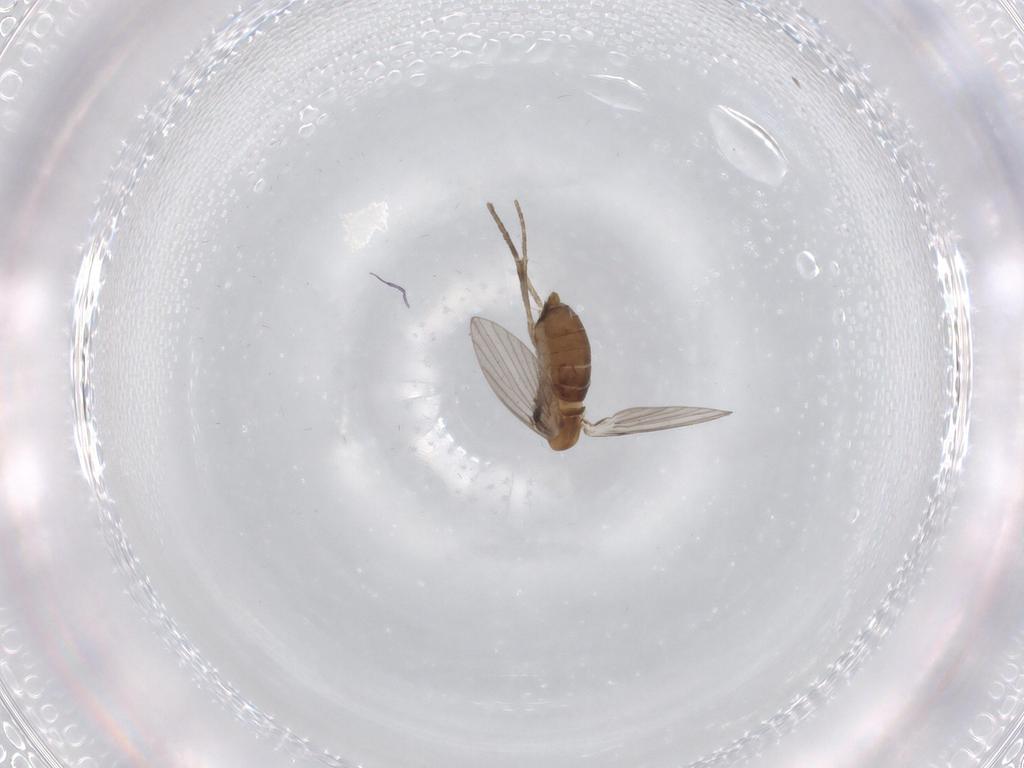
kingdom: Animalia
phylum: Arthropoda
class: Insecta
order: Diptera
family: Psychodidae
